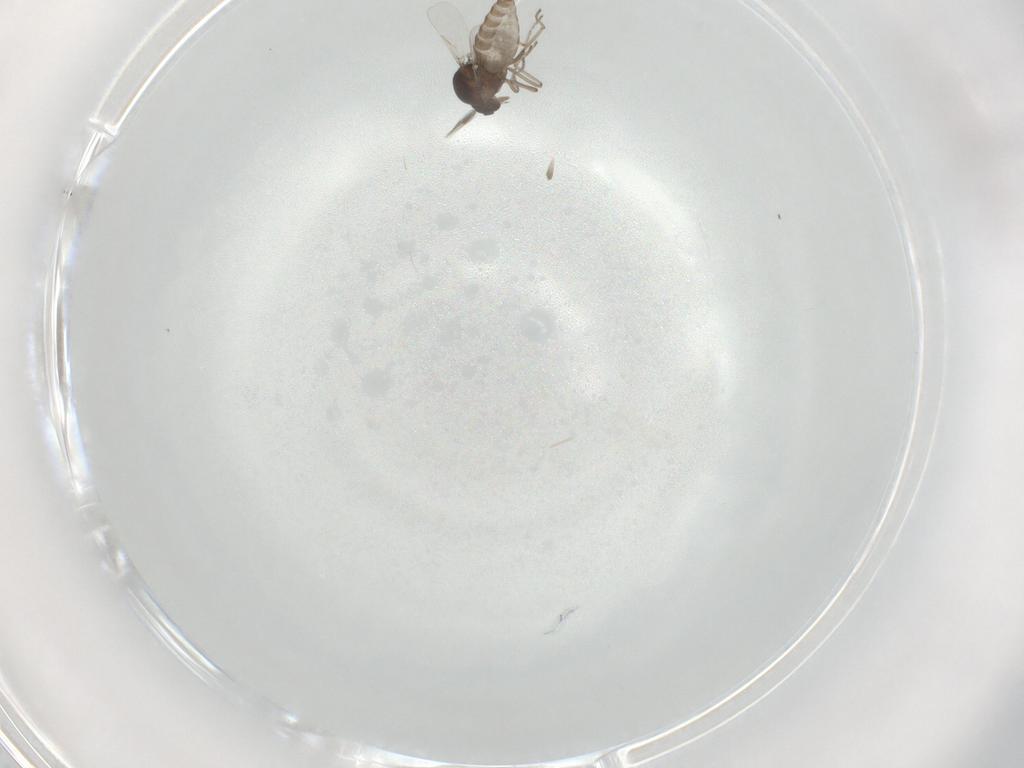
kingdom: Animalia
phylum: Arthropoda
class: Insecta
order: Diptera
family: Ceratopogonidae
